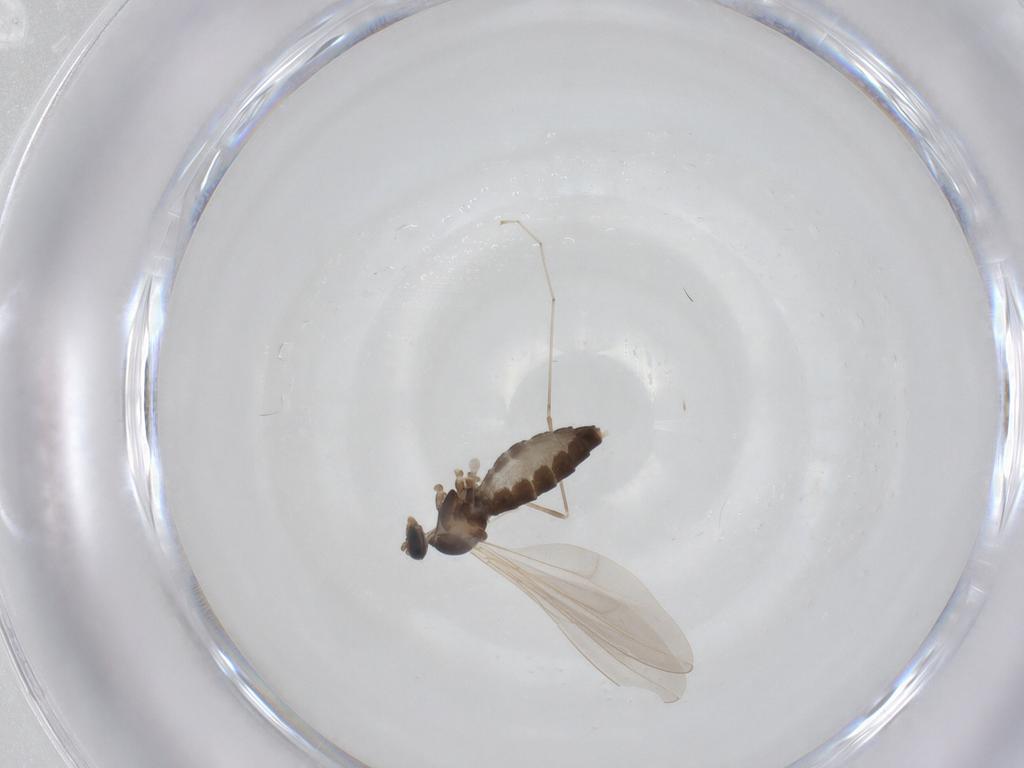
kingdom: Animalia
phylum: Arthropoda
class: Insecta
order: Diptera
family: Cecidomyiidae
